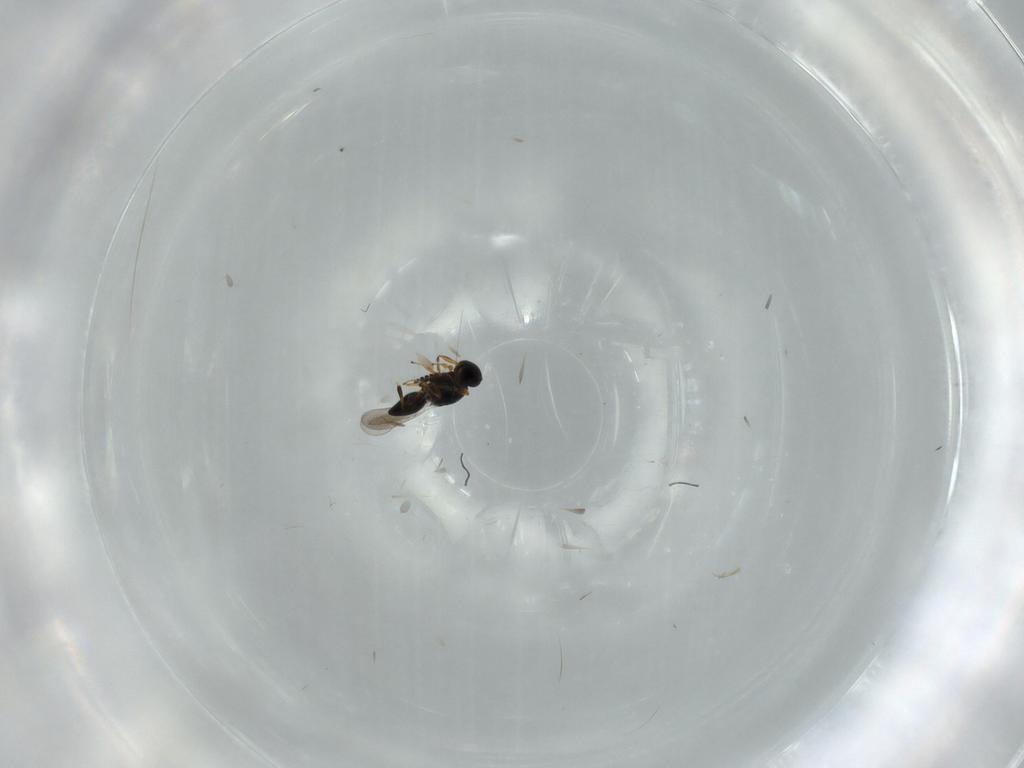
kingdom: Animalia
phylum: Arthropoda
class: Insecta
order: Hymenoptera
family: Platygastridae
